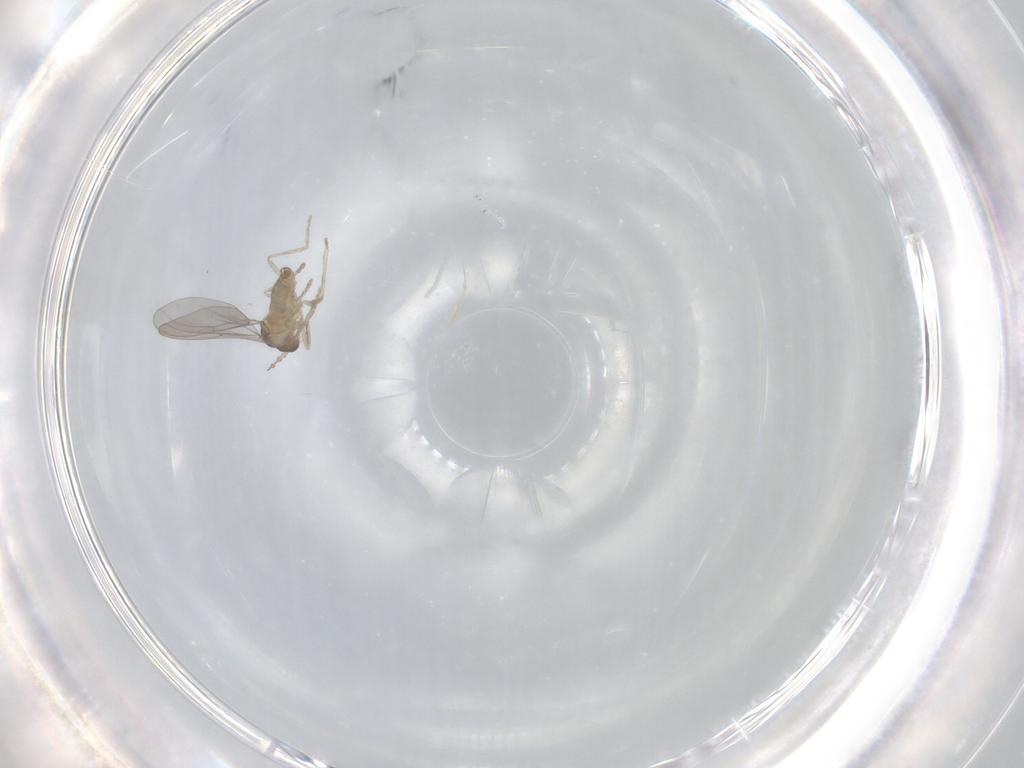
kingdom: Animalia
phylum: Arthropoda
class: Insecta
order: Diptera
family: Cecidomyiidae
